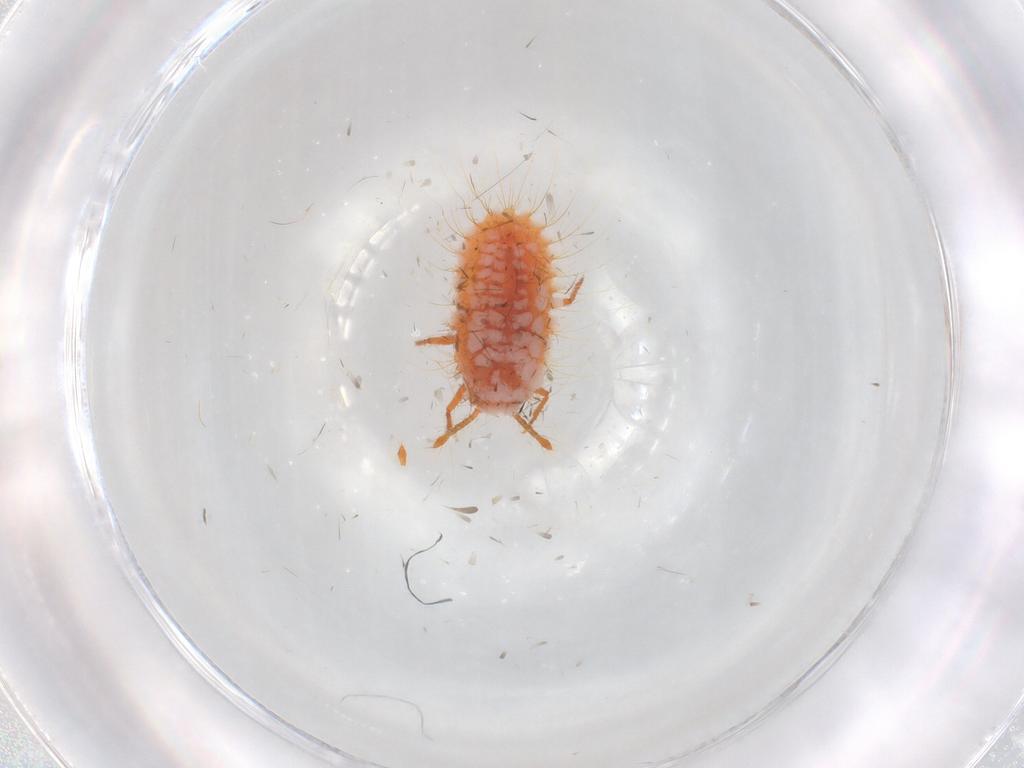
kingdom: Animalia
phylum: Arthropoda
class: Insecta
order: Hemiptera
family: Coccoidea_incertae_sedis
